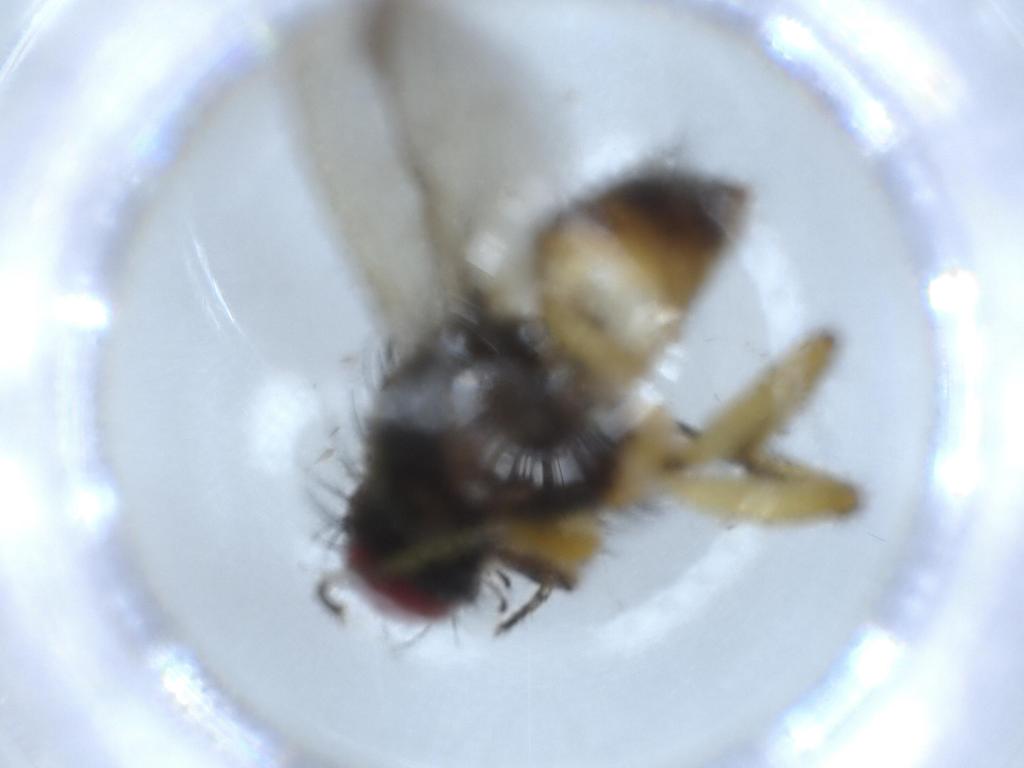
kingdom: Animalia
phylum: Arthropoda
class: Insecta
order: Diptera
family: Muscidae
